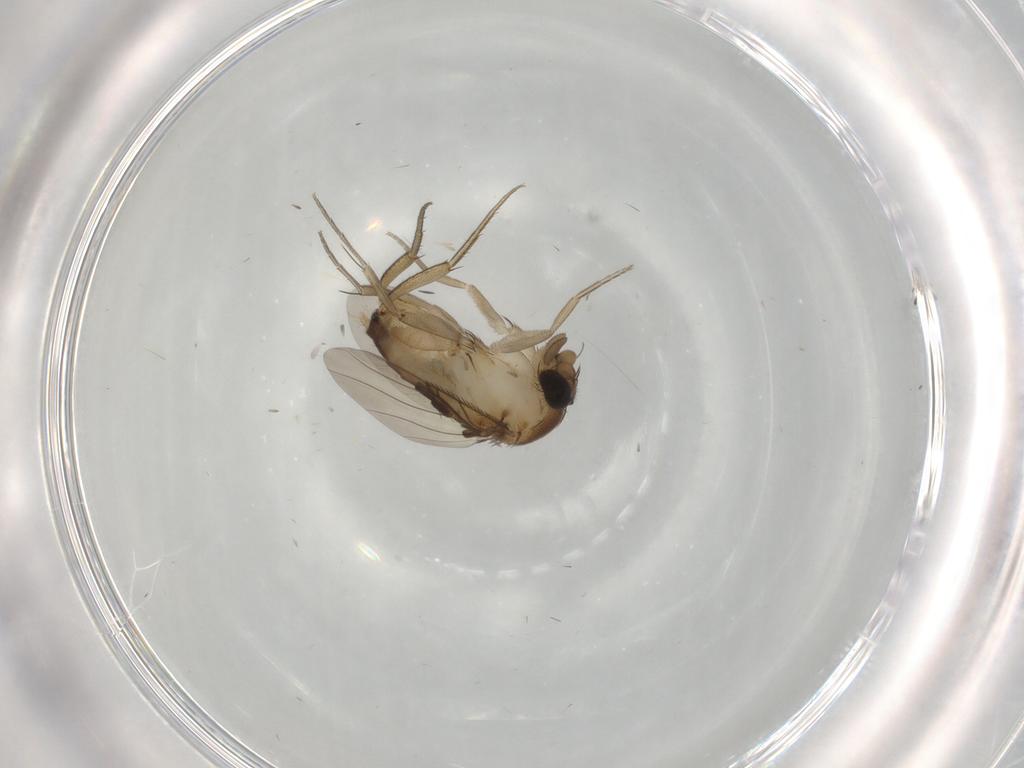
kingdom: Animalia
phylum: Arthropoda
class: Insecta
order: Diptera
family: Phoridae
